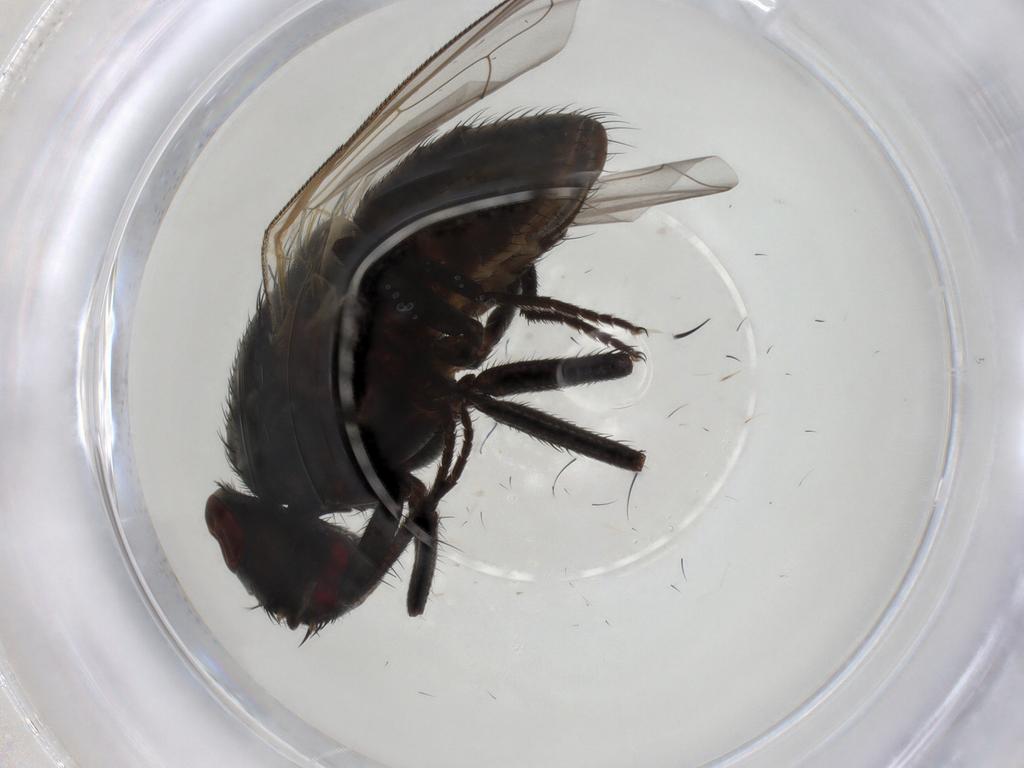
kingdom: Animalia
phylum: Arthropoda
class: Insecta
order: Diptera
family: Muscidae
